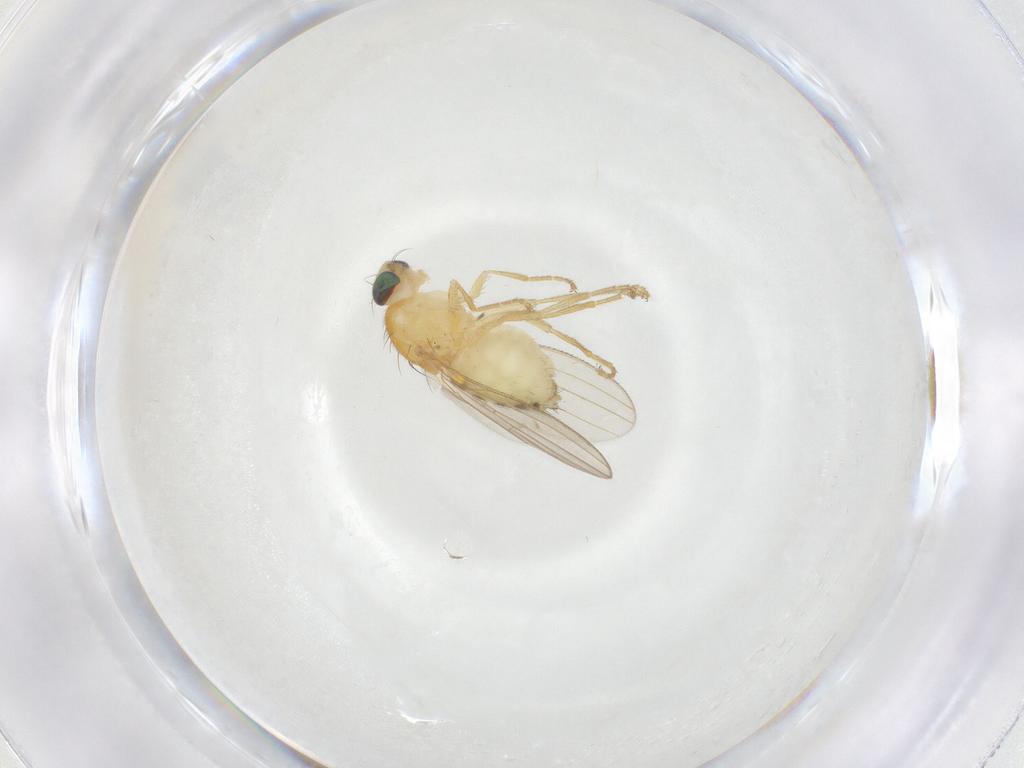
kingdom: Animalia
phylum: Arthropoda
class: Insecta
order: Diptera
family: Chyromyidae
